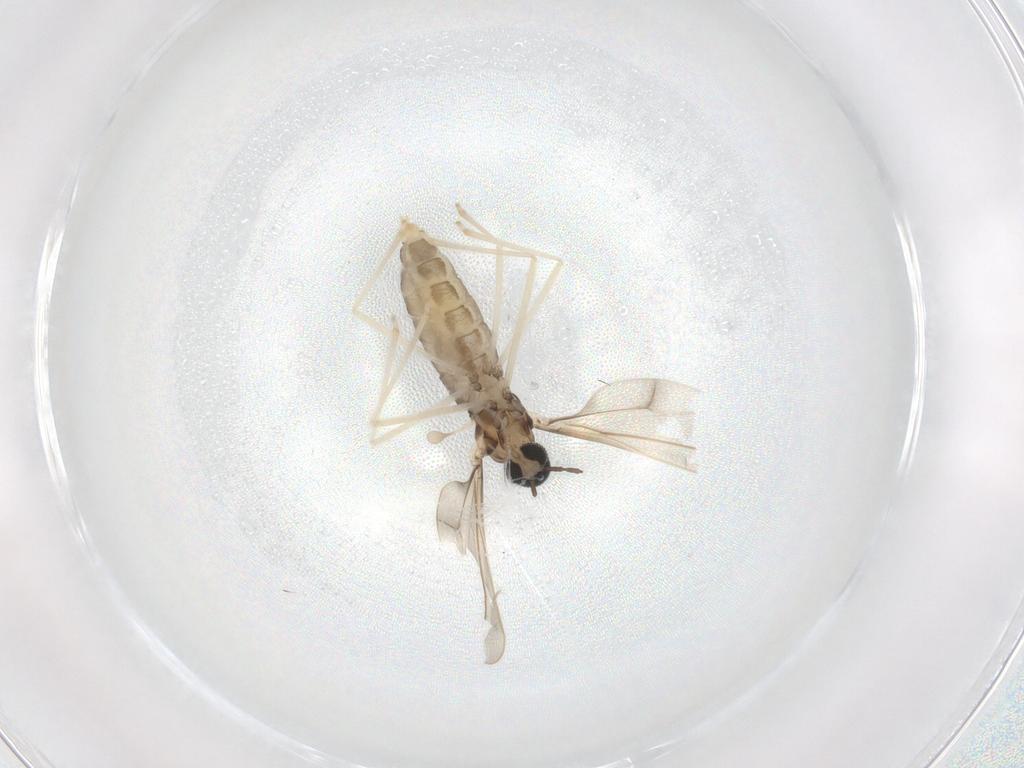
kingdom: Animalia
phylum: Arthropoda
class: Insecta
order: Diptera
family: Cecidomyiidae
